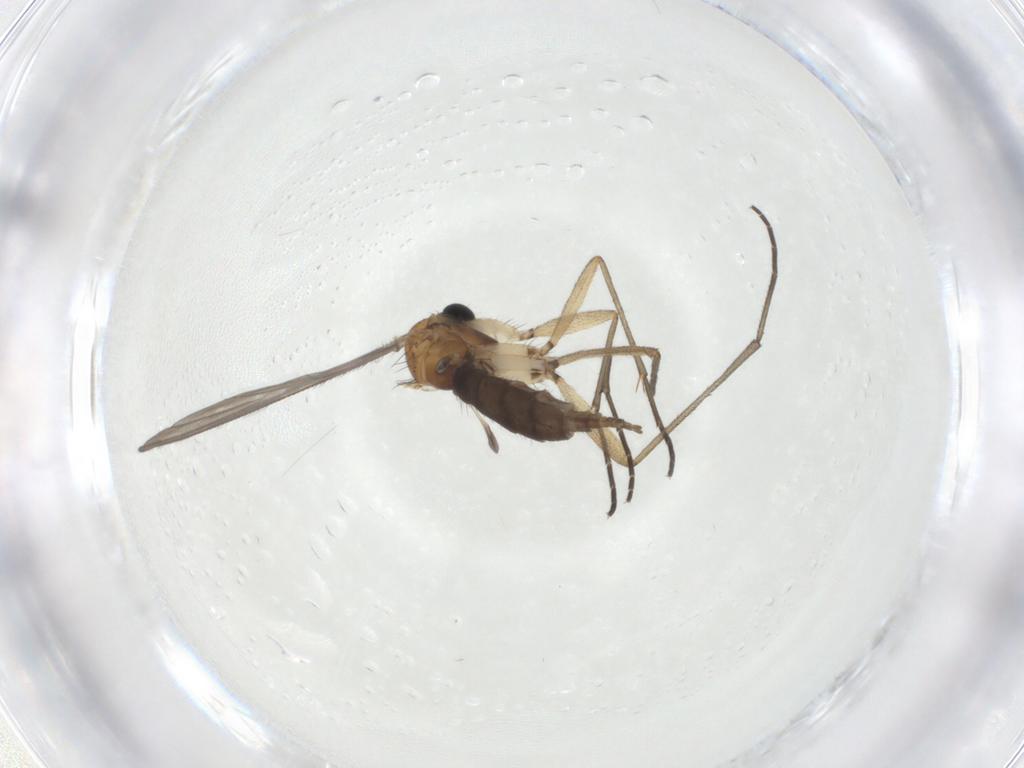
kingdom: Animalia
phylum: Arthropoda
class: Insecta
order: Diptera
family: Sciaridae
